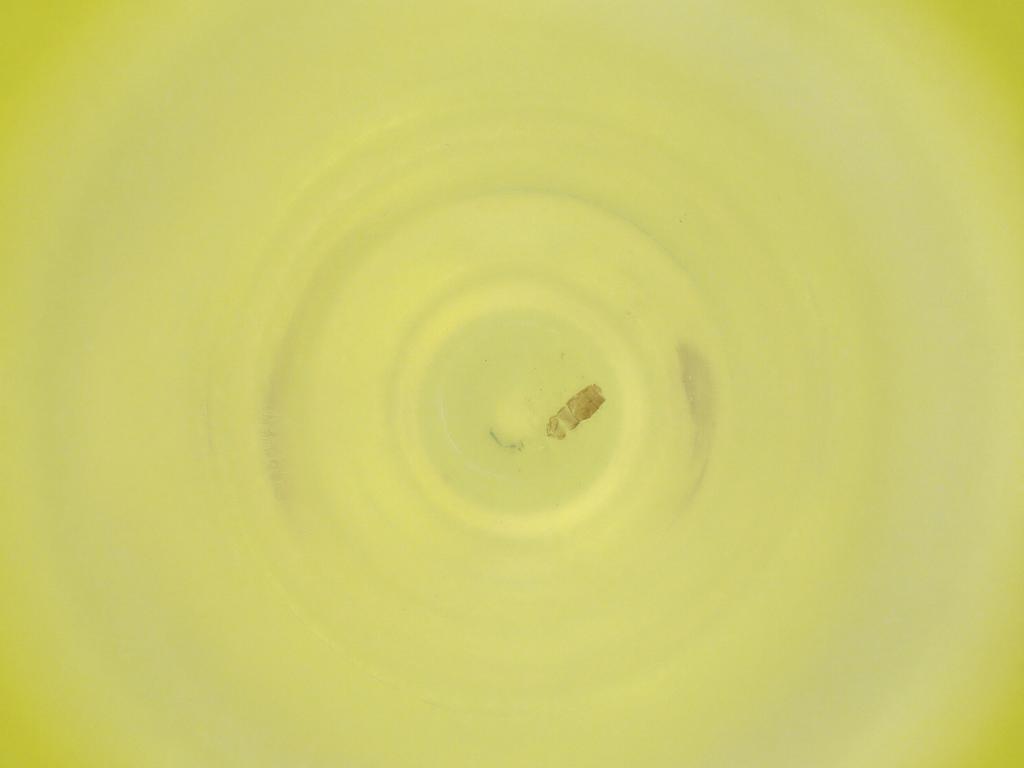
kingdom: Animalia
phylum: Arthropoda
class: Insecta
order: Diptera
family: Cecidomyiidae
